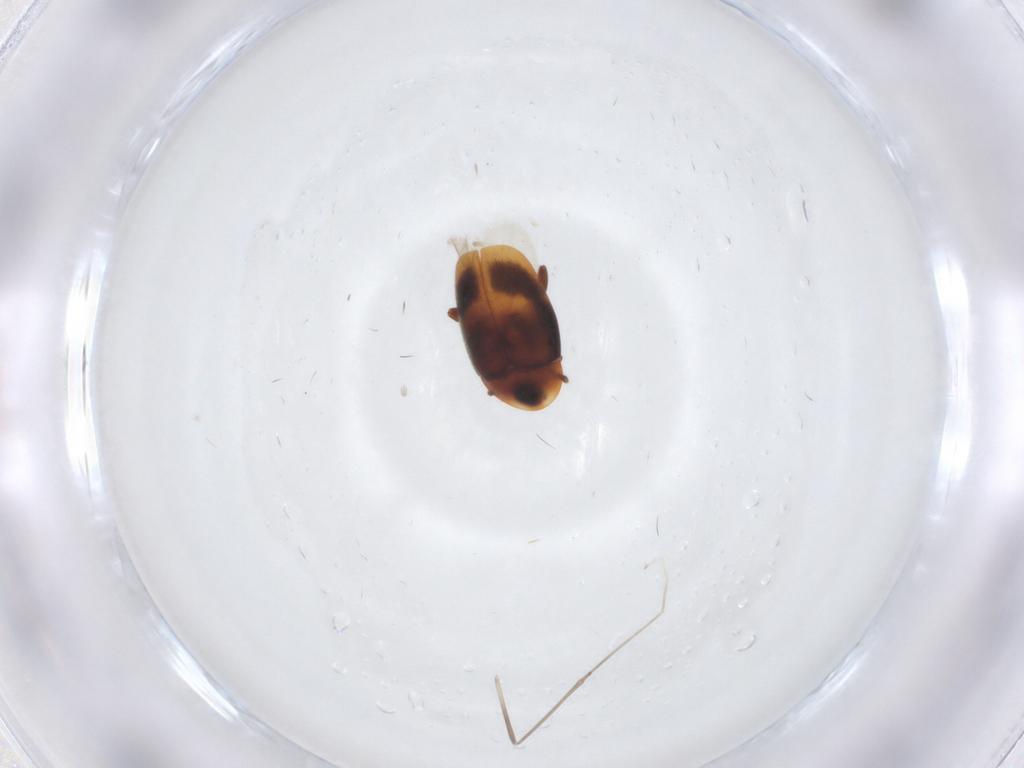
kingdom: Animalia
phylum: Arthropoda
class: Insecta
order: Coleoptera
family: Corylophidae
